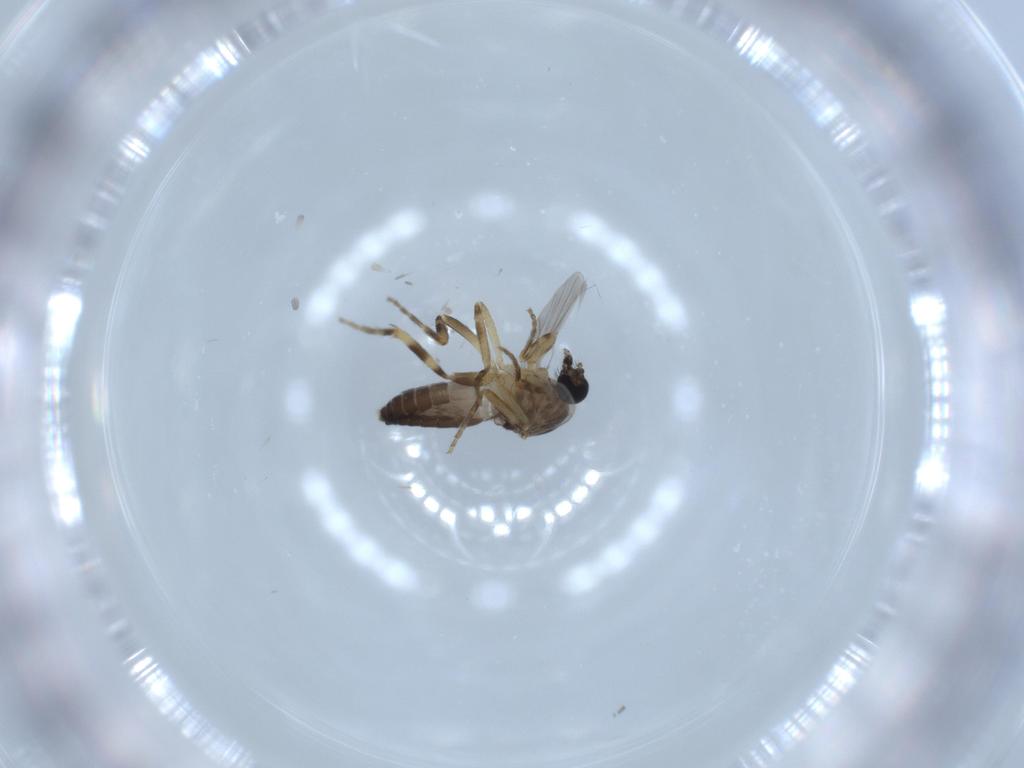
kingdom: Animalia
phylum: Arthropoda
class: Insecta
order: Diptera
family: Ceratopogonidae
